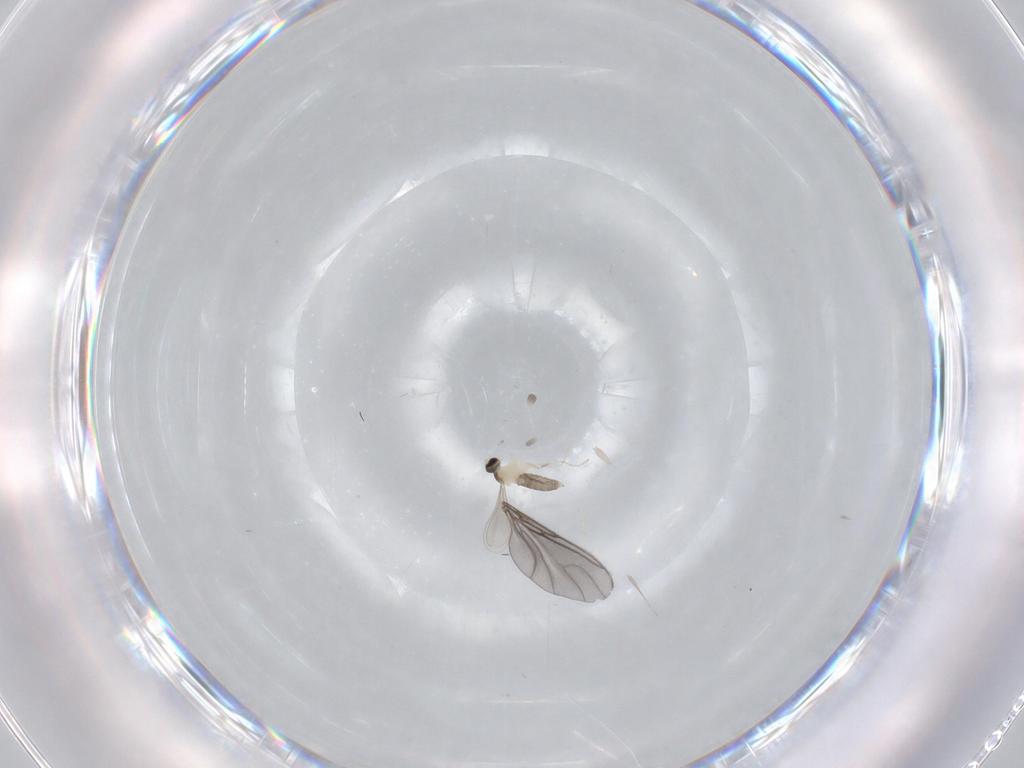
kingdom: Animalia
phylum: Arthropoda
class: Insecta
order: Diptera
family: Sciaridae
